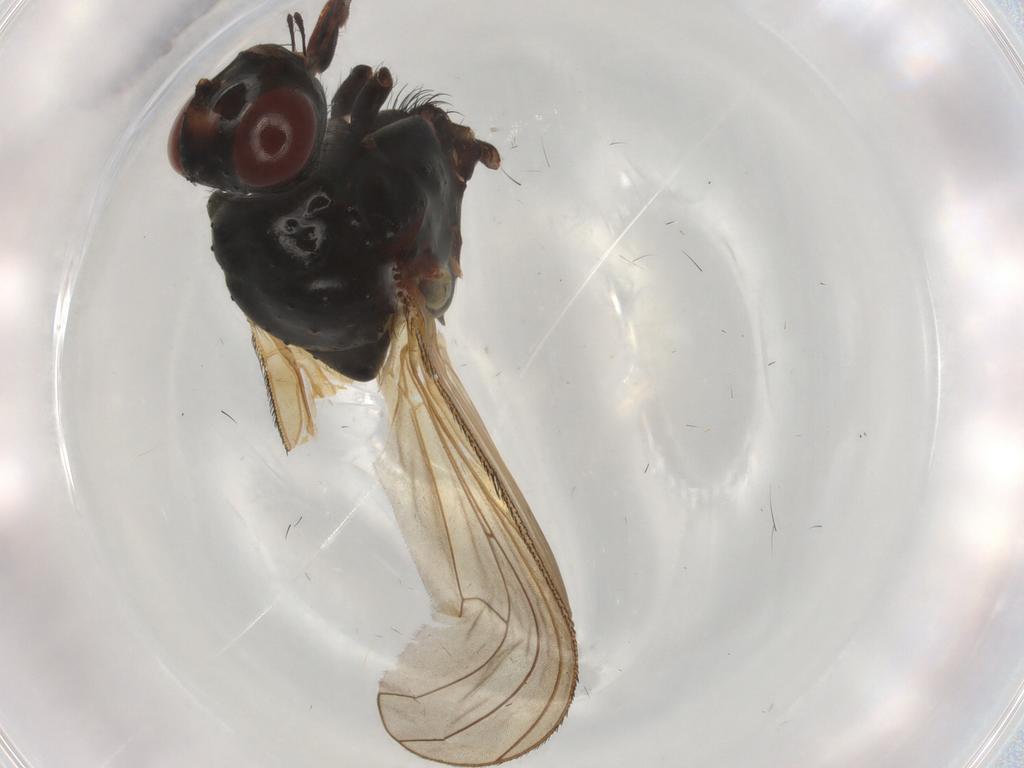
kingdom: Animalia
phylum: Arthropoda
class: Insecta
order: Diptera
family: Anthomyiidae
